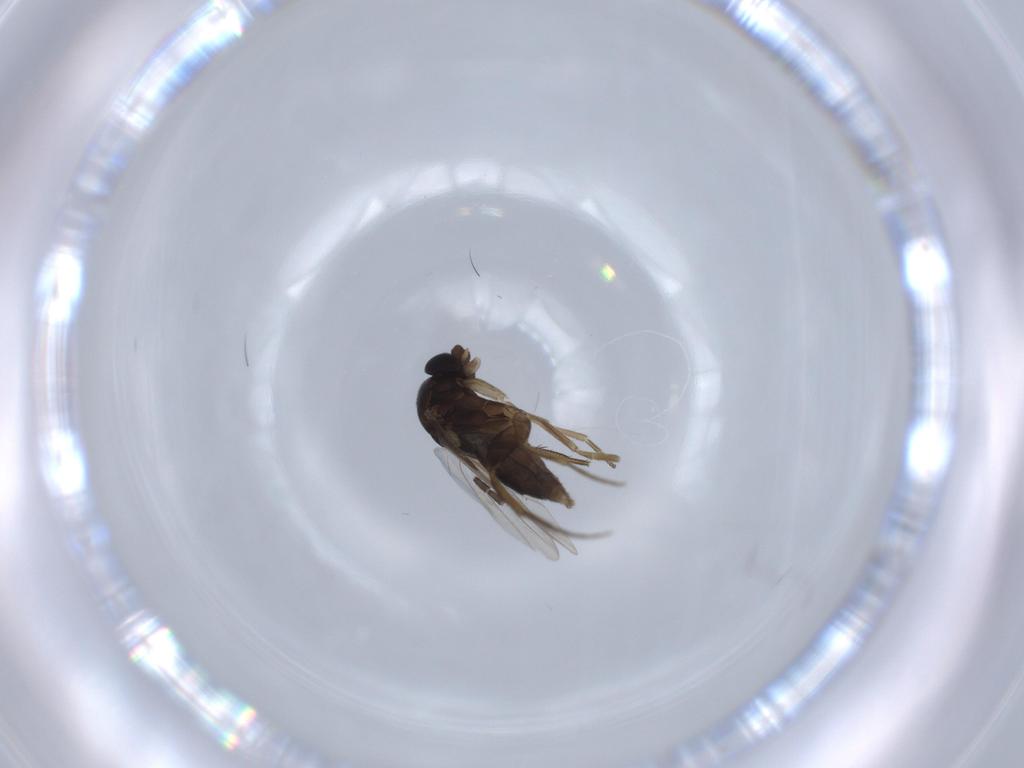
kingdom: Animalia
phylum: Arthropoda
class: Insecta
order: Diptera
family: Phoridae
